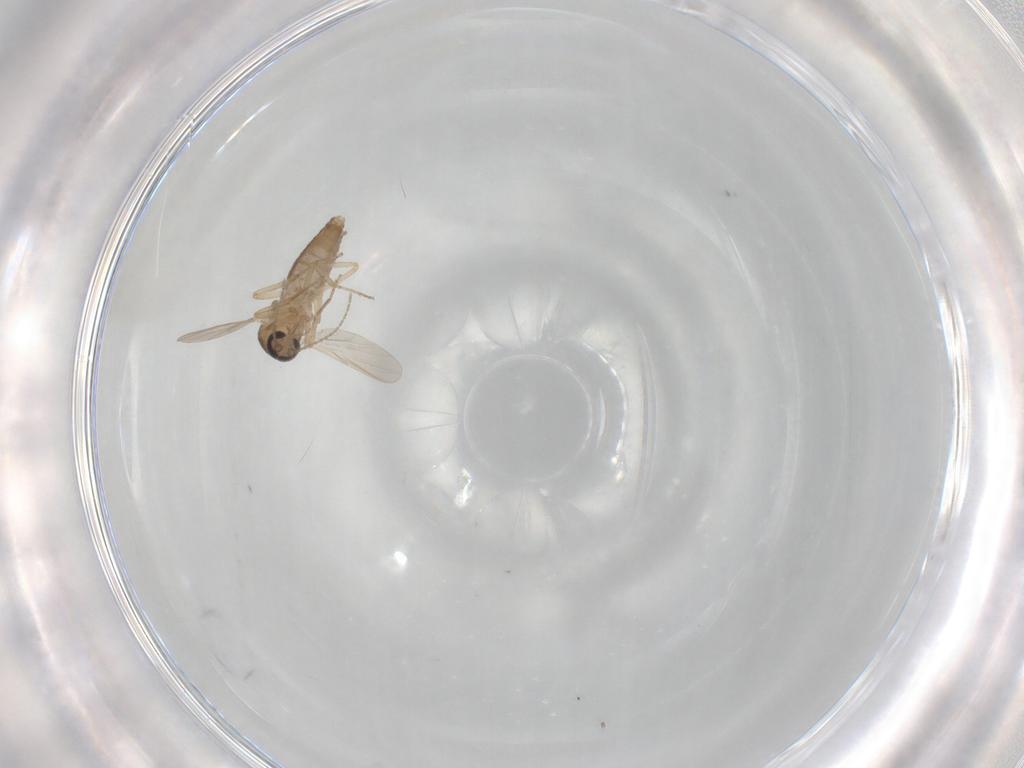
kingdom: Animalia
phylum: Arthropoda
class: Insecta
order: Diptera
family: Ceratopogonidae
